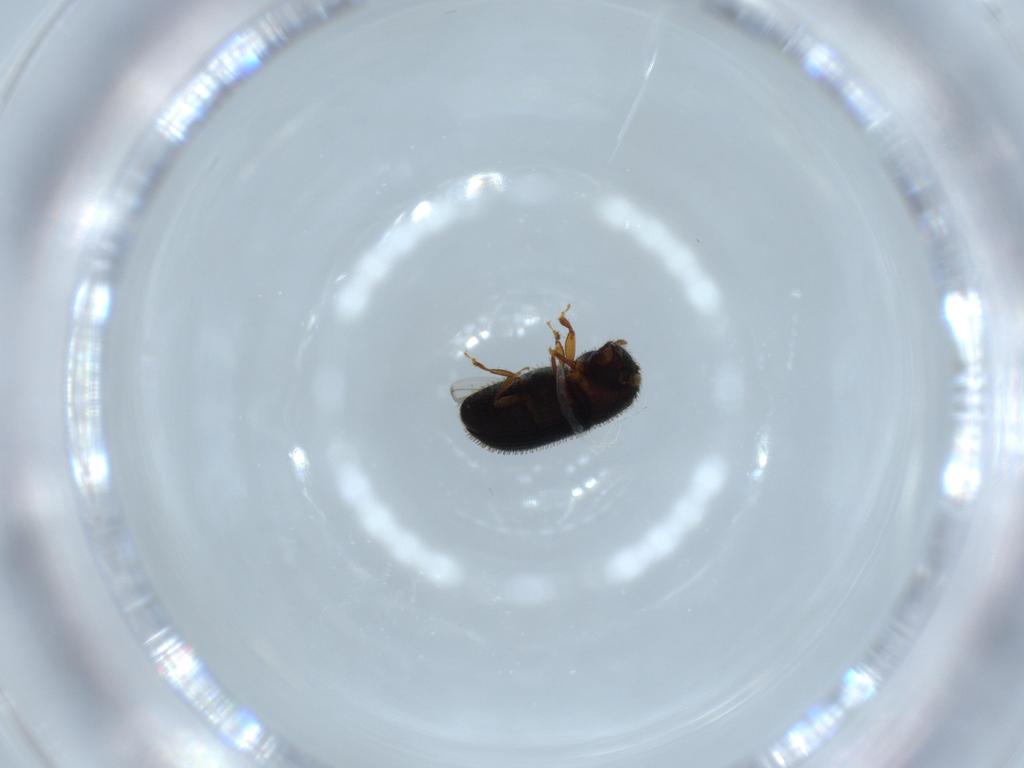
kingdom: Animalia
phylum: Arthropoda
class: Insecta
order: Coleoptera
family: Curculionidae
